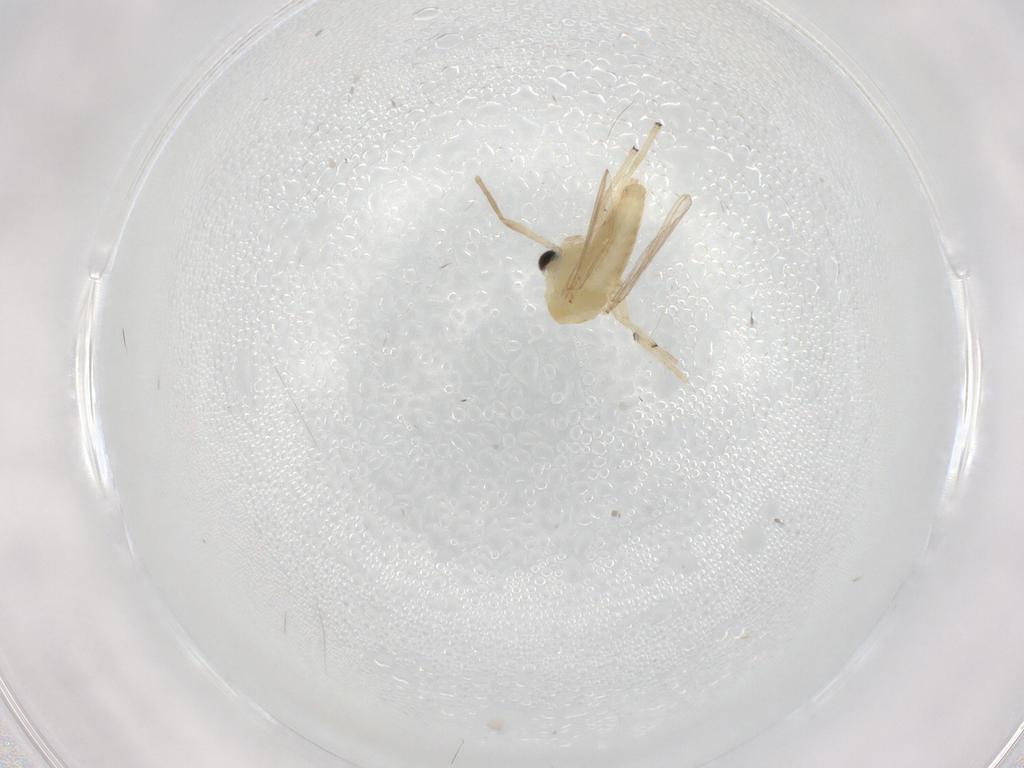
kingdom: Animalia
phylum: Arthropoda
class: Insecta
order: Diptera
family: Chironomidae
